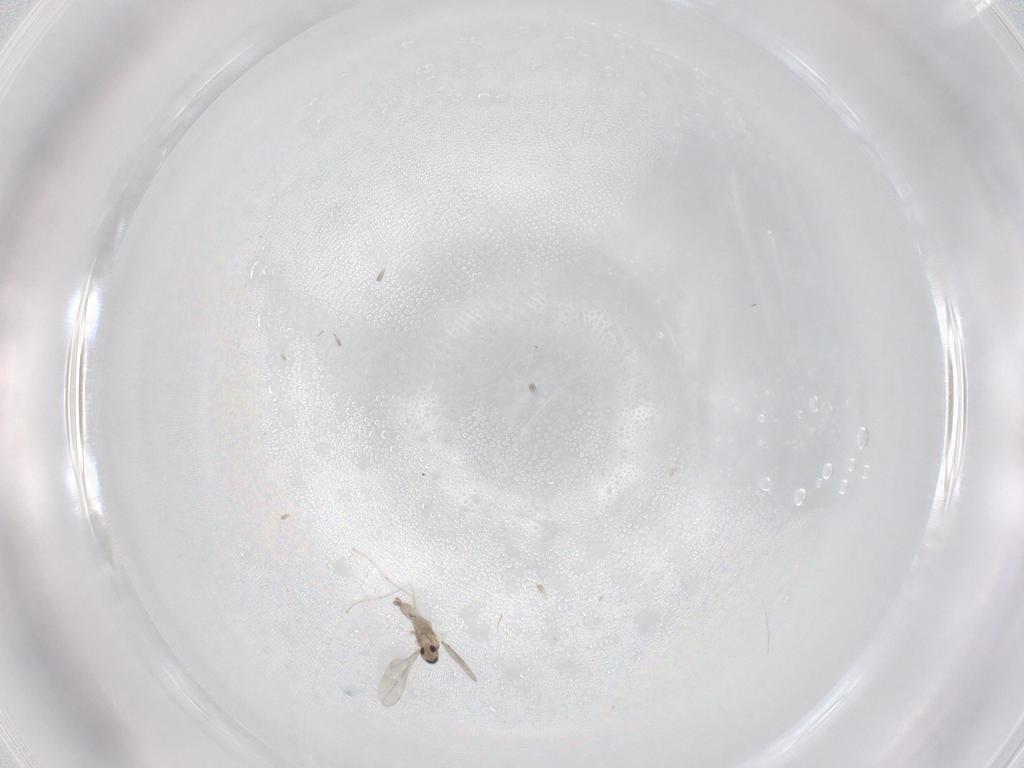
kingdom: Animalia
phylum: Arthropoda
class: Insecta
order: Diptera
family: Cecidomyiidae
